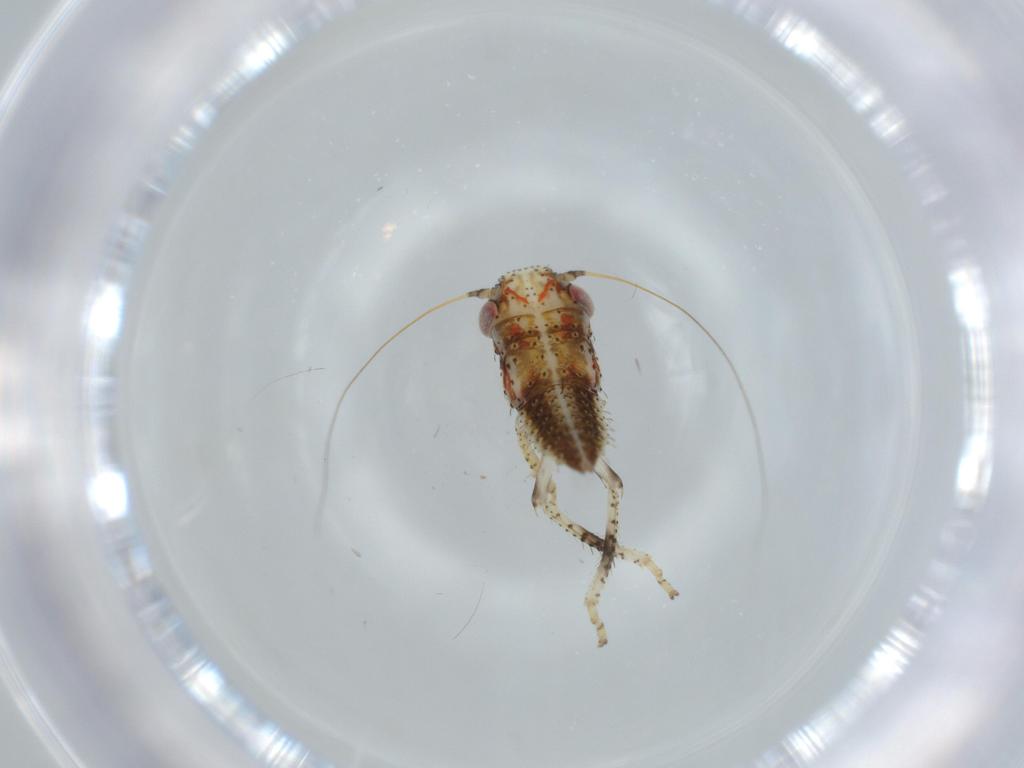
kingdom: Animalia
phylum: Arthropoda
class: Insecta
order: Hemiptera
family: Cicadellidae
